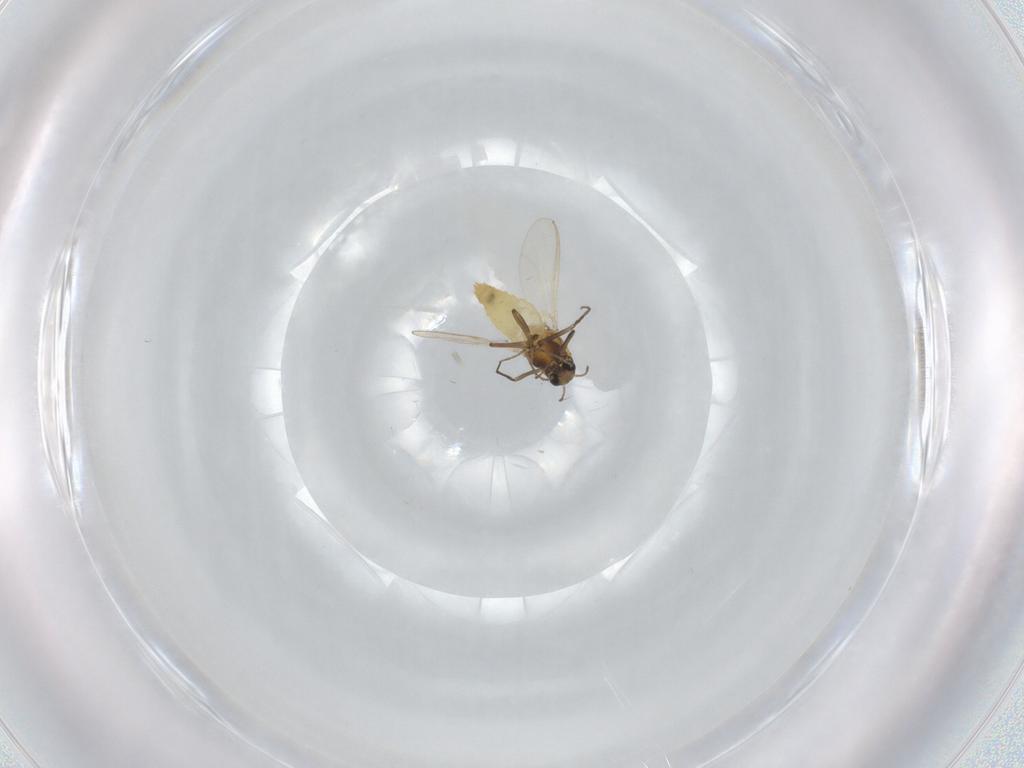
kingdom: Animalia
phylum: Arthropoda
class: Insecta
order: Diptera
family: Chironomidae
